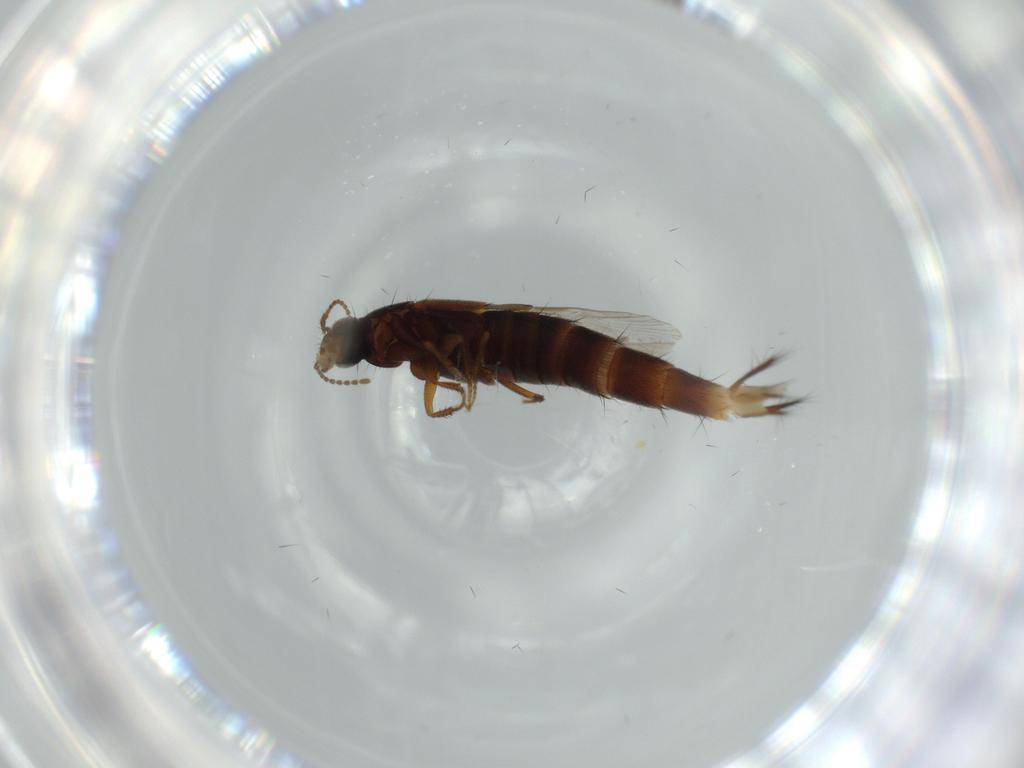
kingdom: Animalia
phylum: Arthropoda
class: Insecta
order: Coleoptera
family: Staphylinidae
